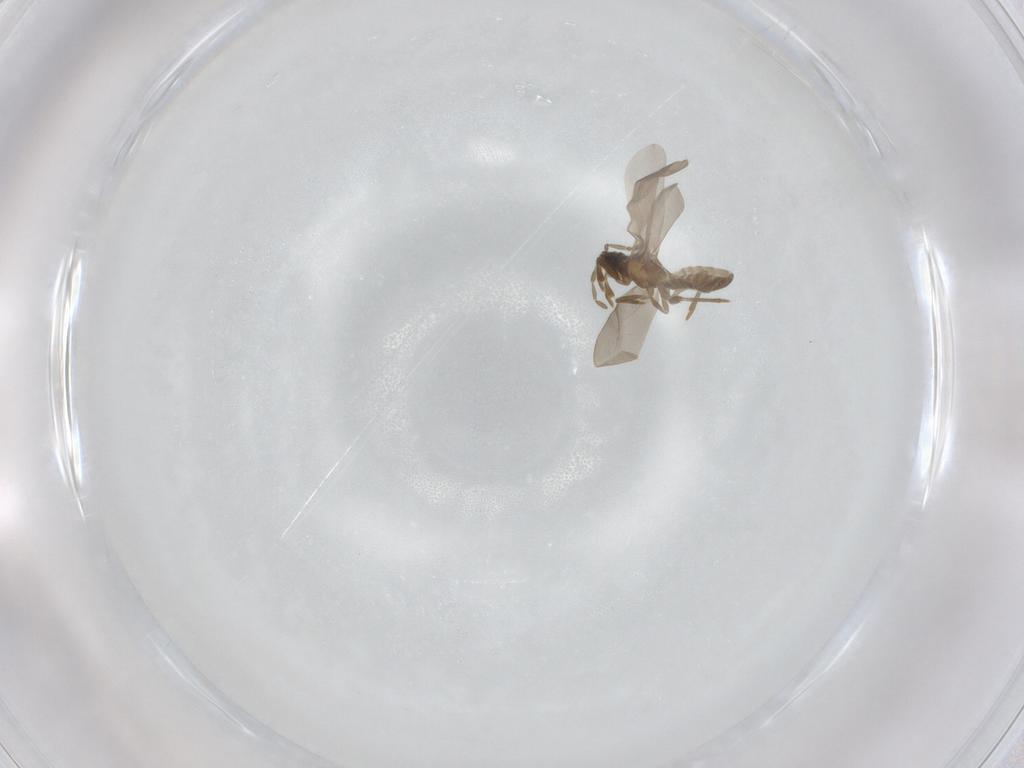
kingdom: Animalia
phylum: Arthropoda
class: Insecta
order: Hemiptera
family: Enicocephalidae
